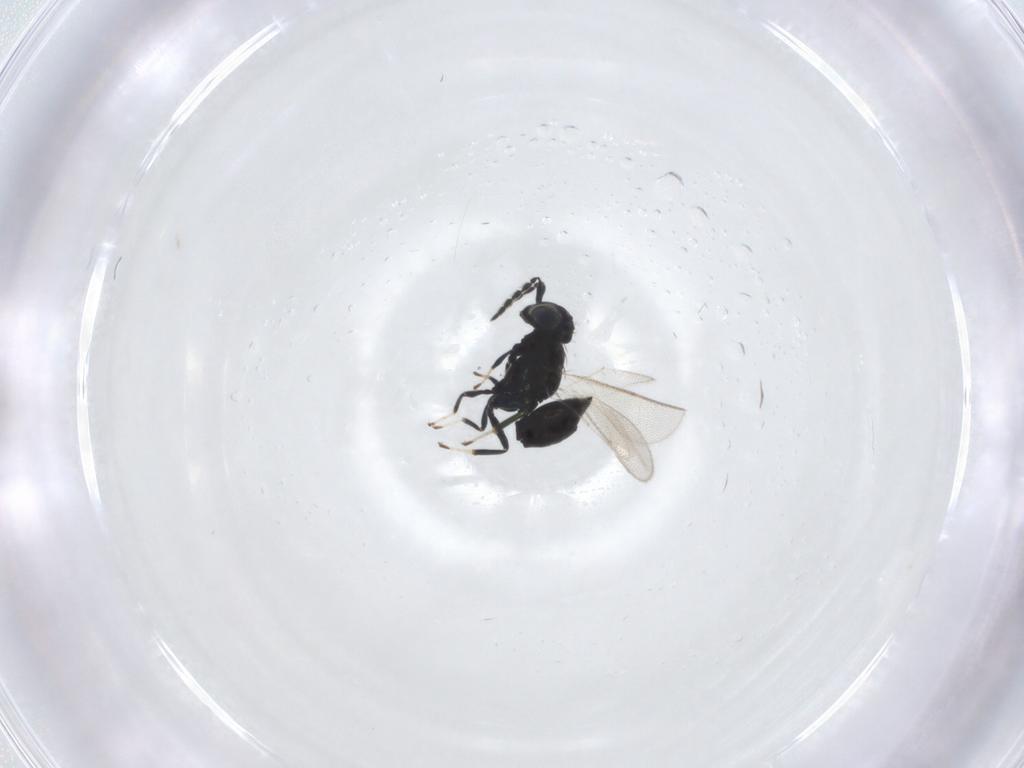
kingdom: Animalia
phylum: Arthropoda
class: Insecta
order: Hymenoptera
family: Eulophidae
